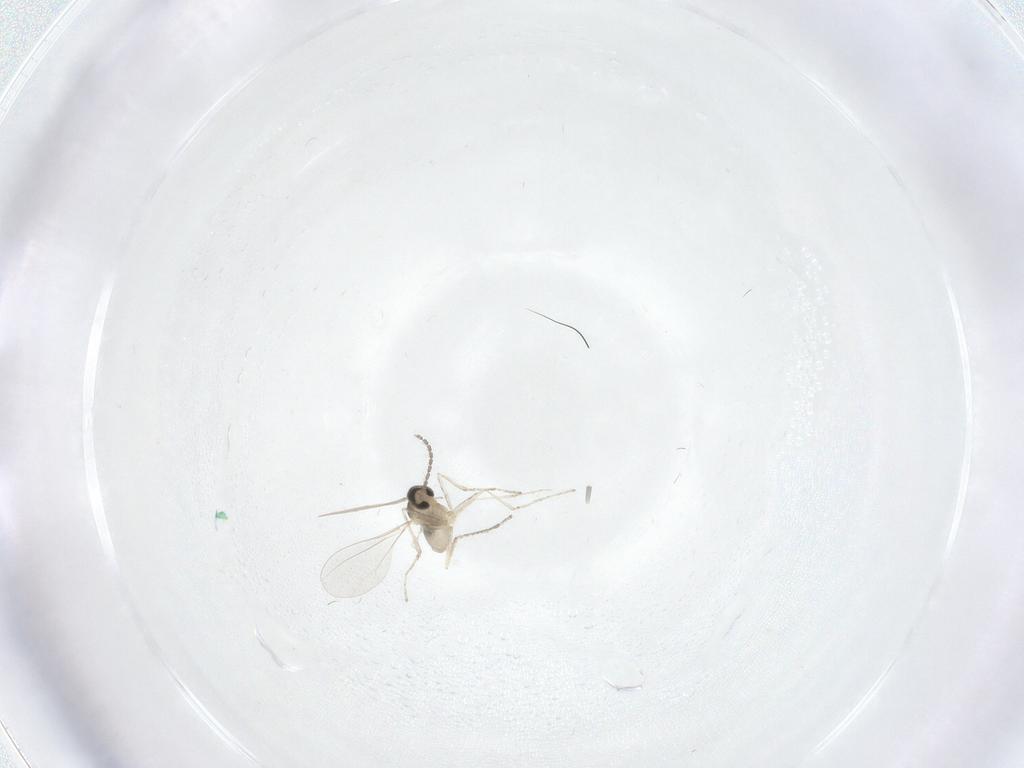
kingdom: Animalia
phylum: Arthropoda
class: Insecta
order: Diptera
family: Cecidomyiidae
